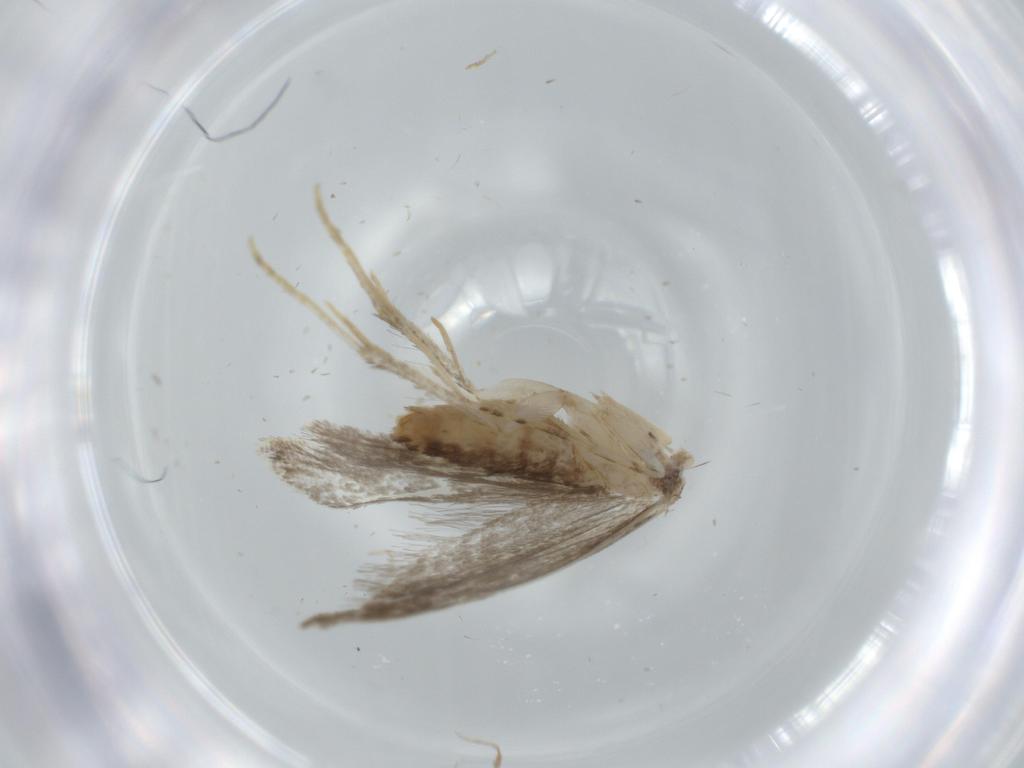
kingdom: Animalia
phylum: Arthropoda
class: Insecta
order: Lepidoptera
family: Tineidae
